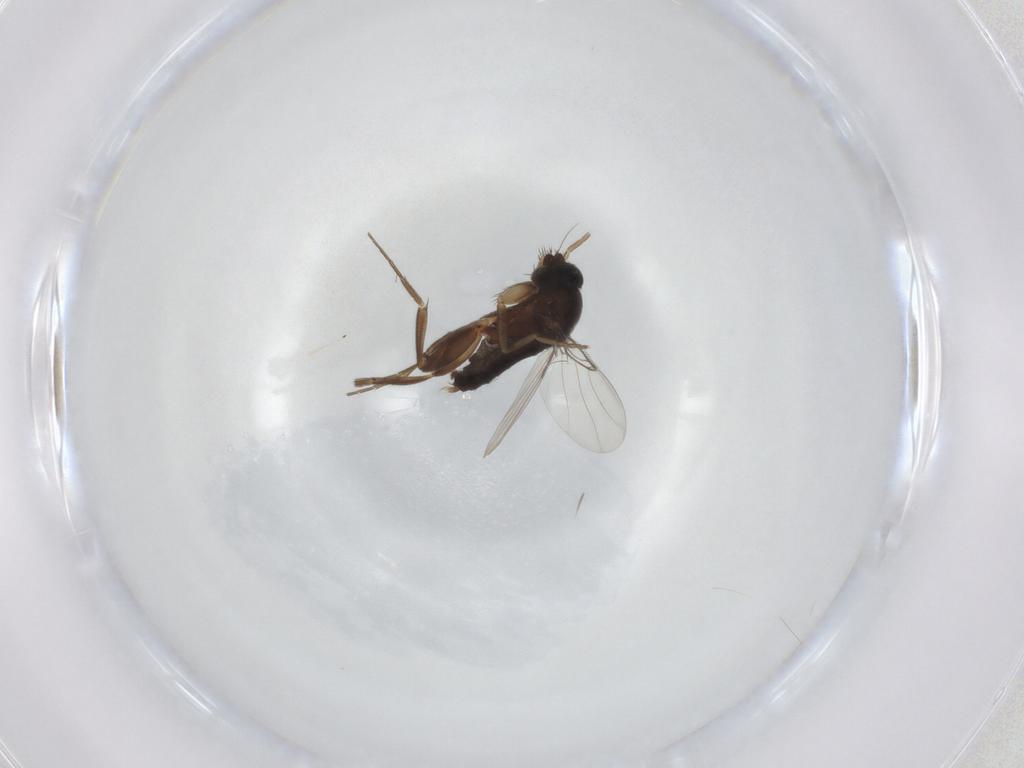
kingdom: Animalia
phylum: Arthropoda
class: Insecta
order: Diptera
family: Phoridae
